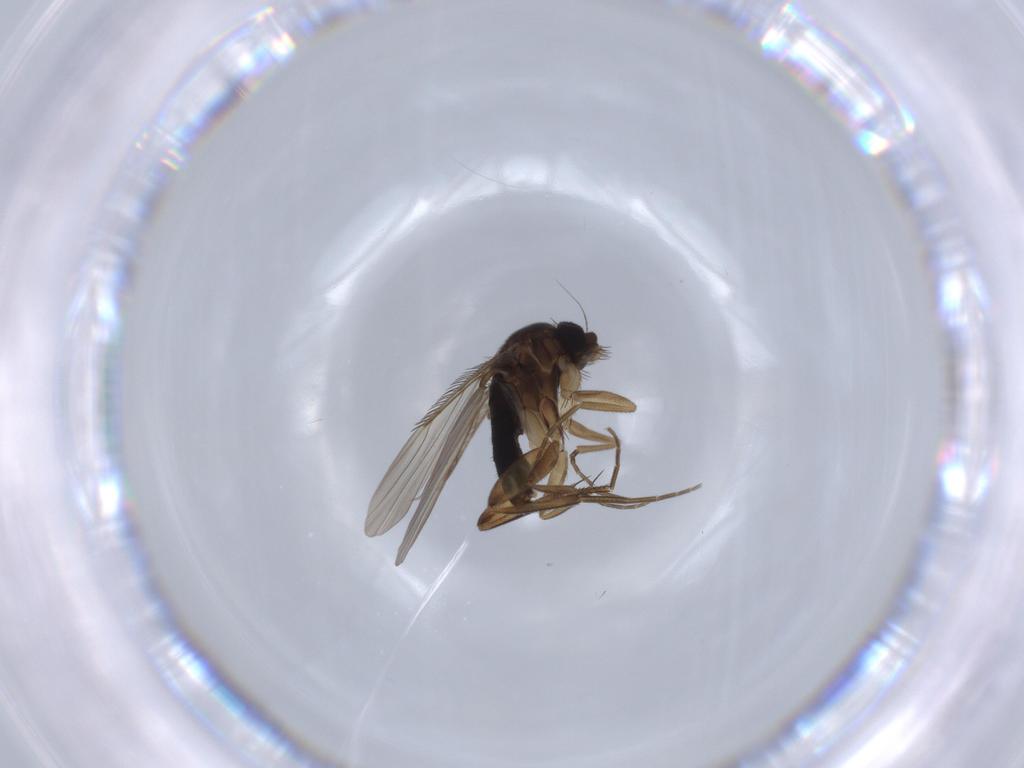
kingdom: Animalia
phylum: Arthropoda
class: Insecta
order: Diptera
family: Phoridae
